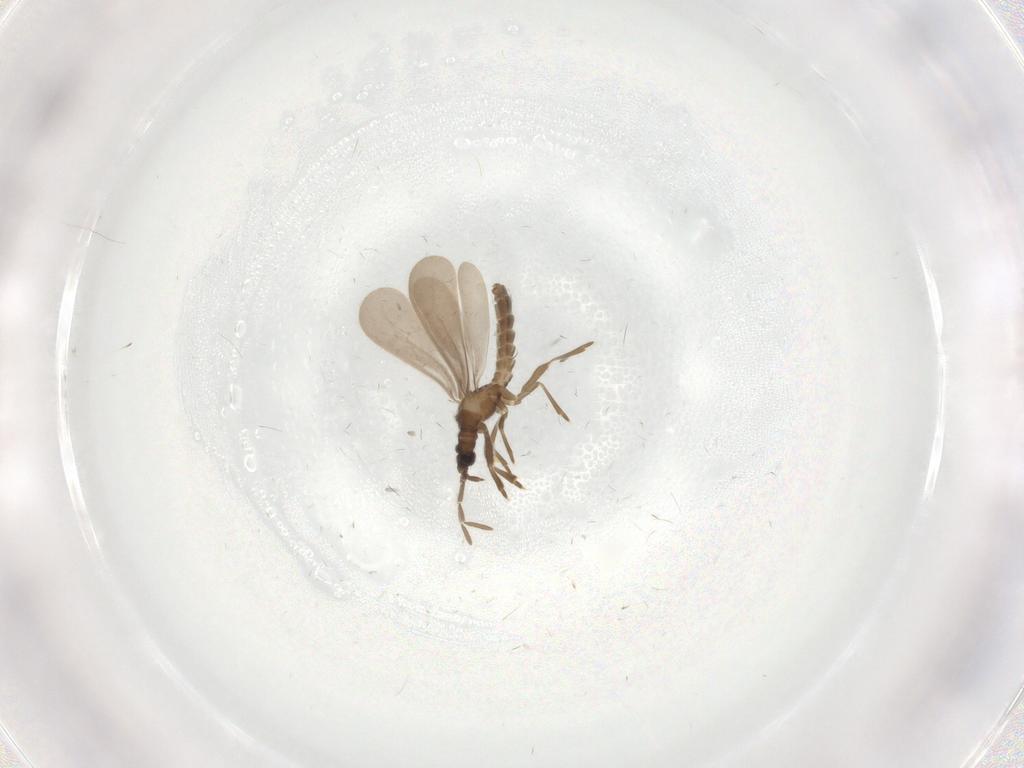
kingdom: Animalia
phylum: Arthropoda
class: Insecta
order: Hemiptera
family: Enicocephalidae
